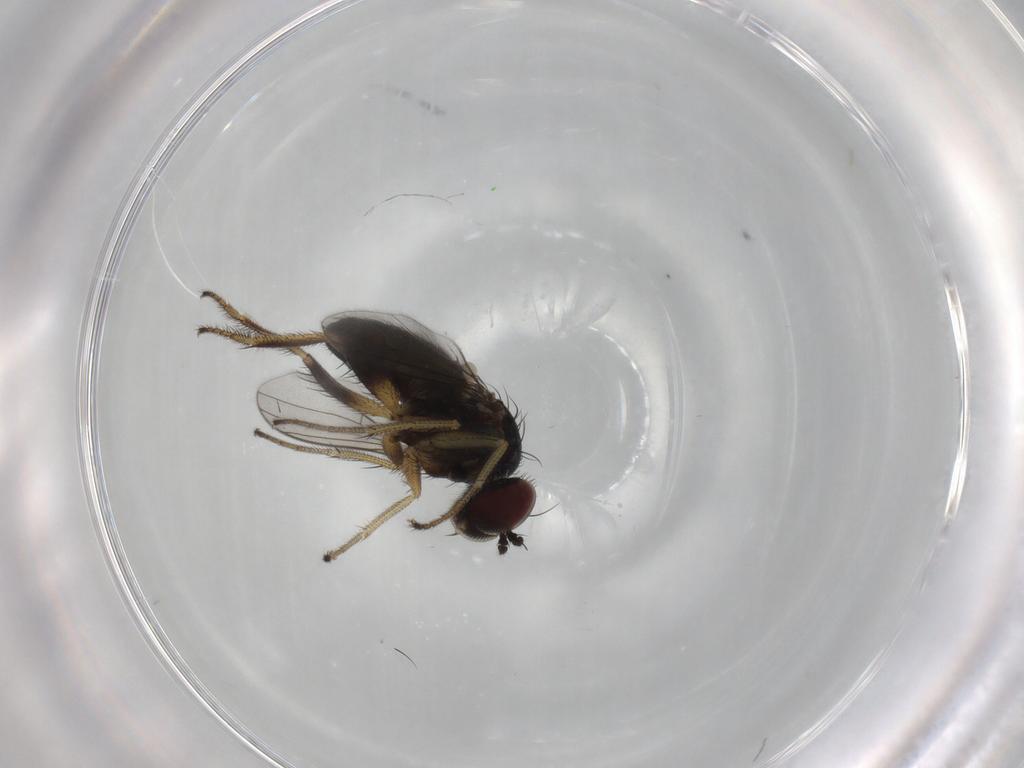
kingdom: Animalia
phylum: Arthropoda
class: Insecta
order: Diptera
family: Dolichopodidae
